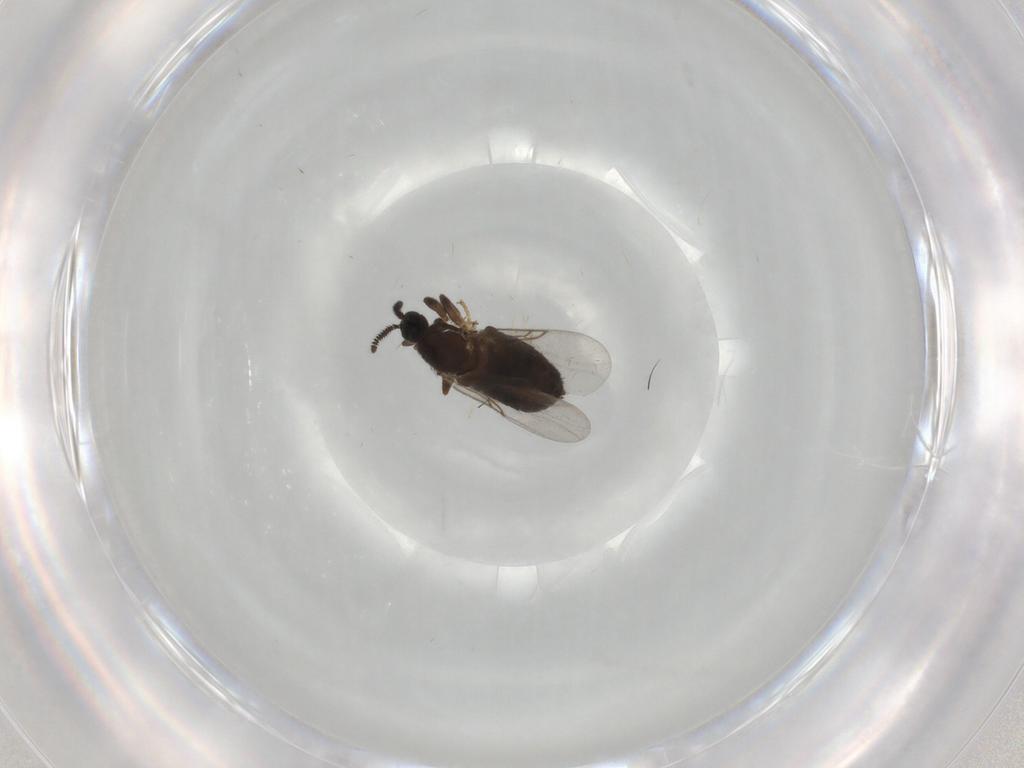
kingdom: Animalia
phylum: Arthropoda
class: Insecta
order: Diptera
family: Scatopsidae
